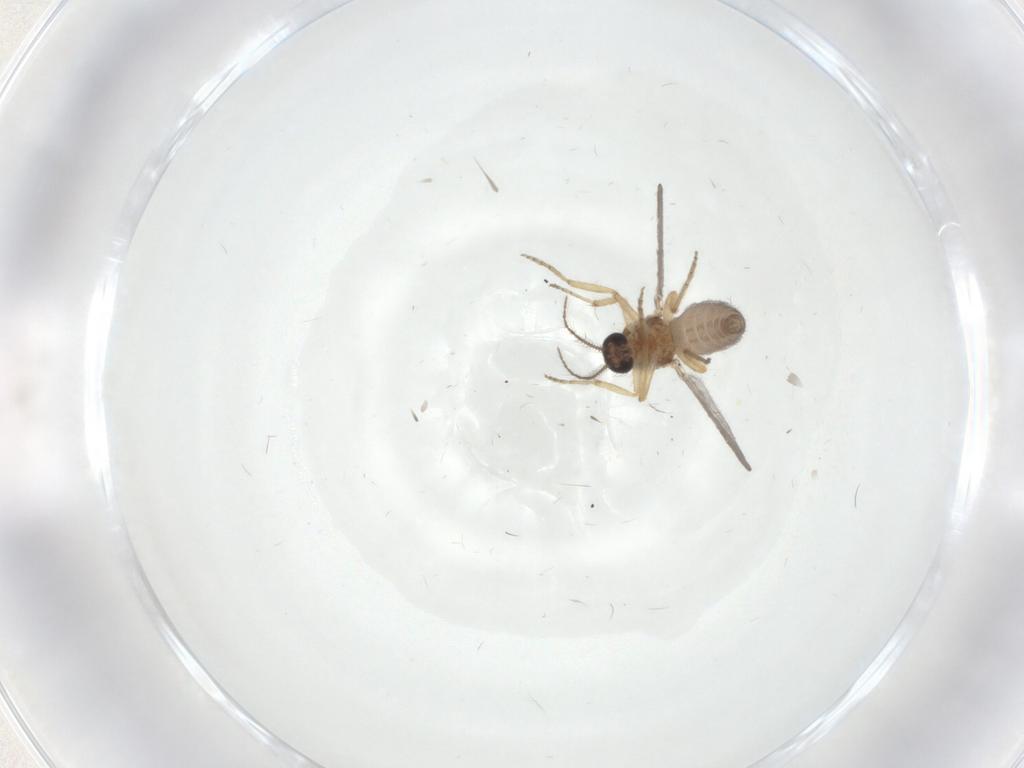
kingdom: Animalia
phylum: Arthropoda
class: Insecta
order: Diptera
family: Ceratopogonidae
